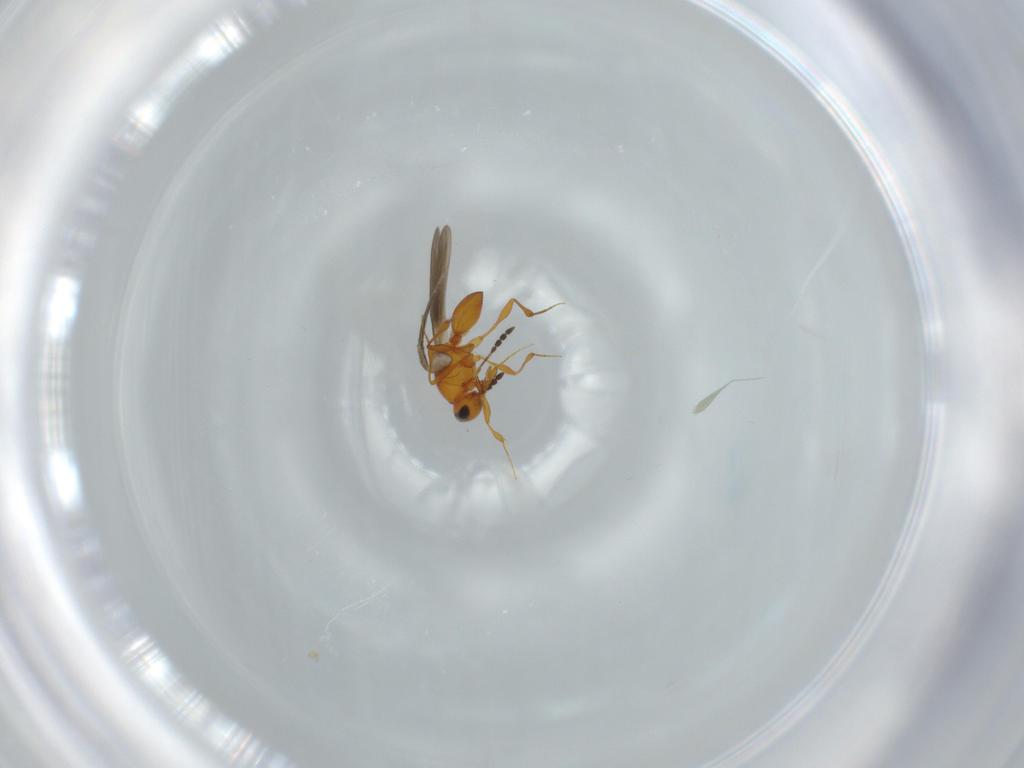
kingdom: Animalia
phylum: Arthropoda
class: Insecta
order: Hymenoptera
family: Platygastridae
